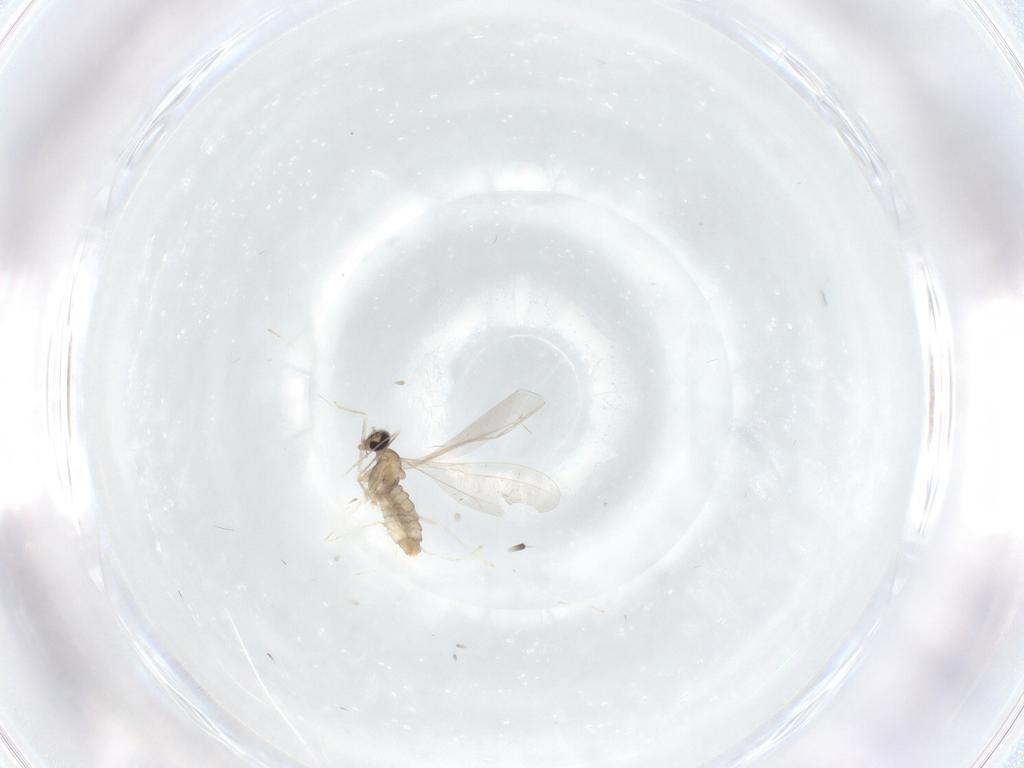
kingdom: Animalia
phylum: Arthropoda
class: Insecta
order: Diptera
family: Cecidomyiidae
